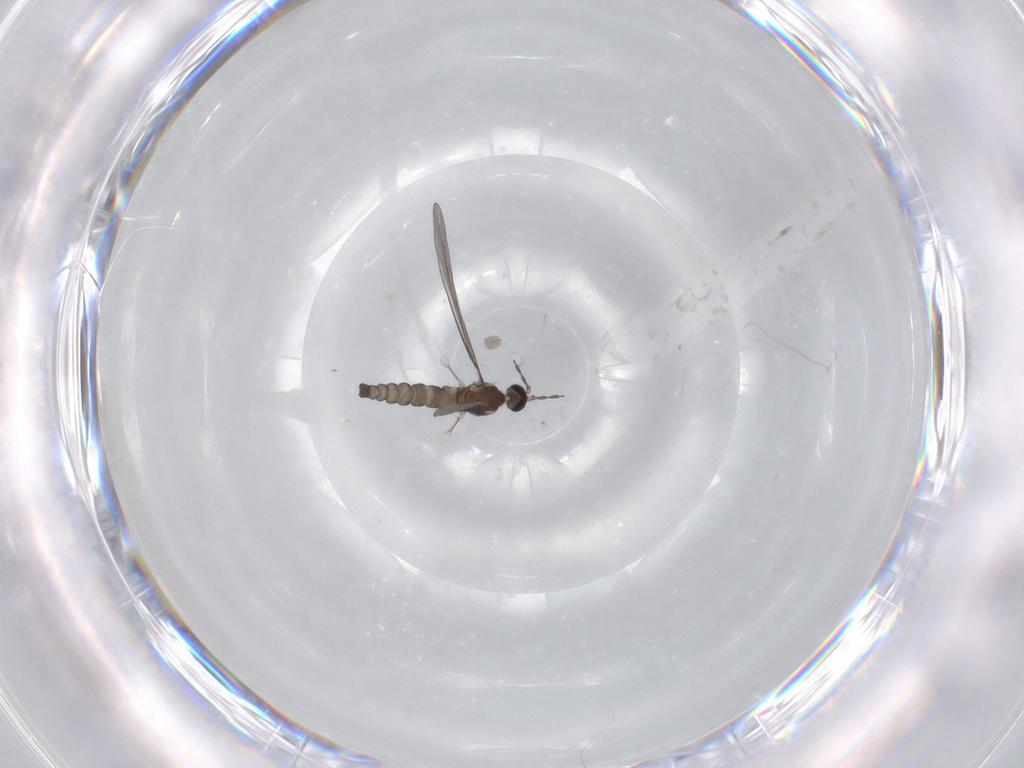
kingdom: Animalia
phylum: Arthropoda
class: Insecta
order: Diptera
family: Cecidomyiidae
